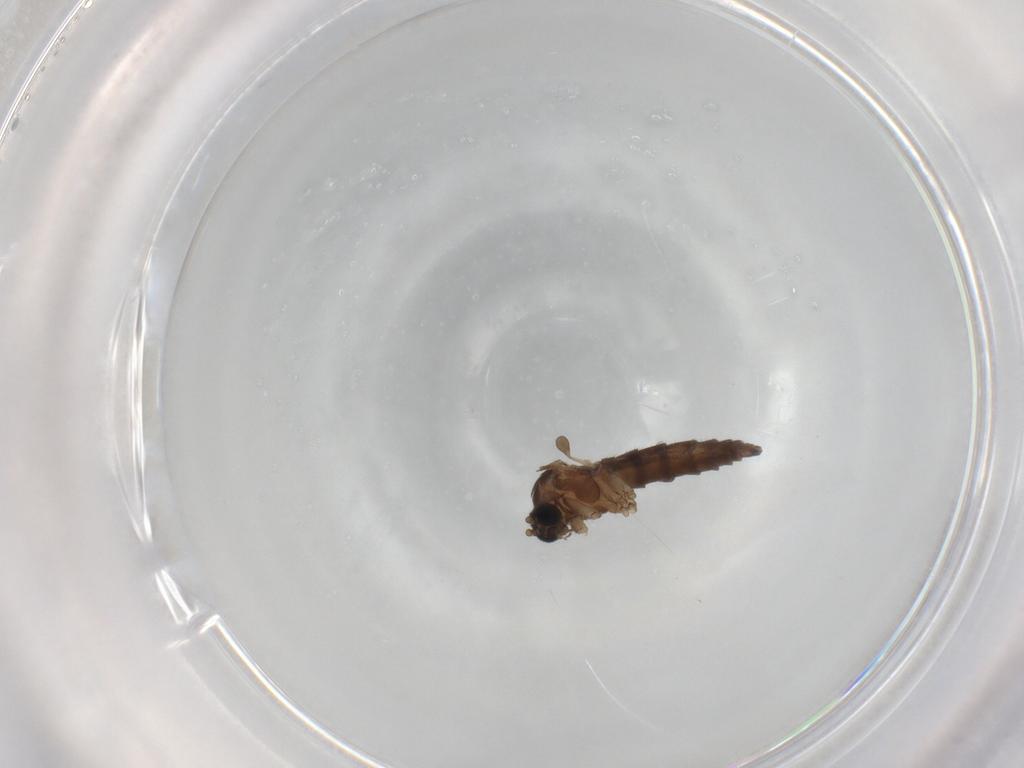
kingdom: Animalia
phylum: Arthropoda
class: Insecta
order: Diptera
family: Sciaridae
